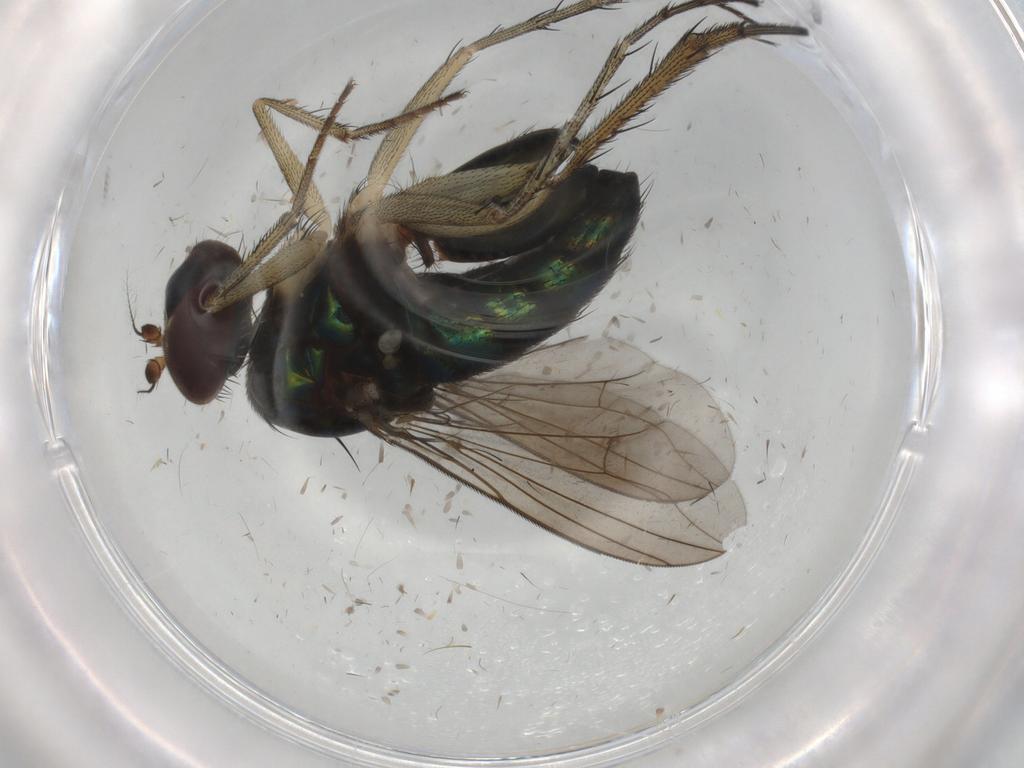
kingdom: Animalia
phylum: Arthropoda
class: Insecta
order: Diptera
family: Dolichopodidae
